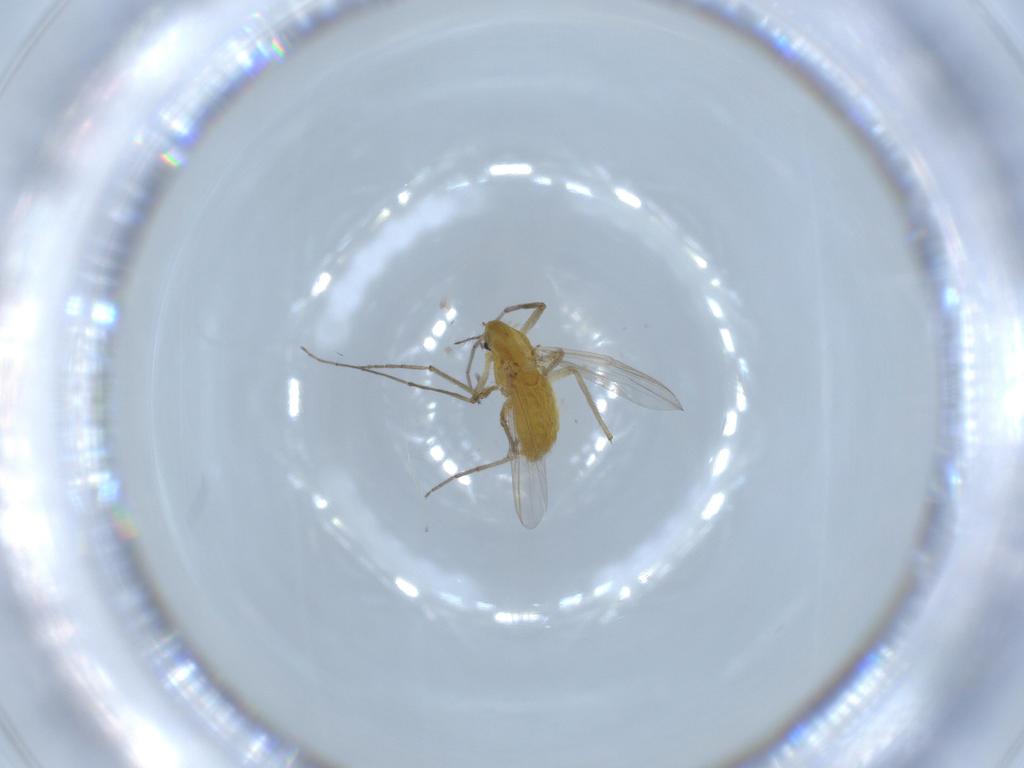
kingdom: Animalia
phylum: Arthropoda
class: Insecta
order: Diptera
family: Chironomidae
